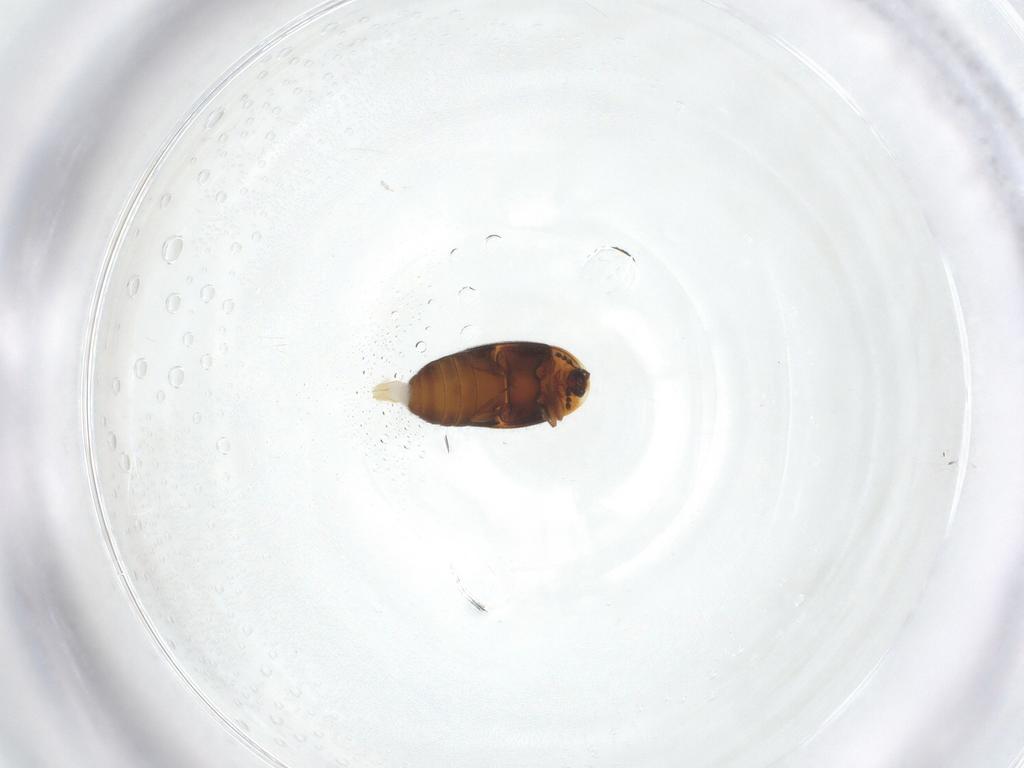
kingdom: Animalia
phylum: Arthropoda
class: Insecta
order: Coleoptera
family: Corylophidae
